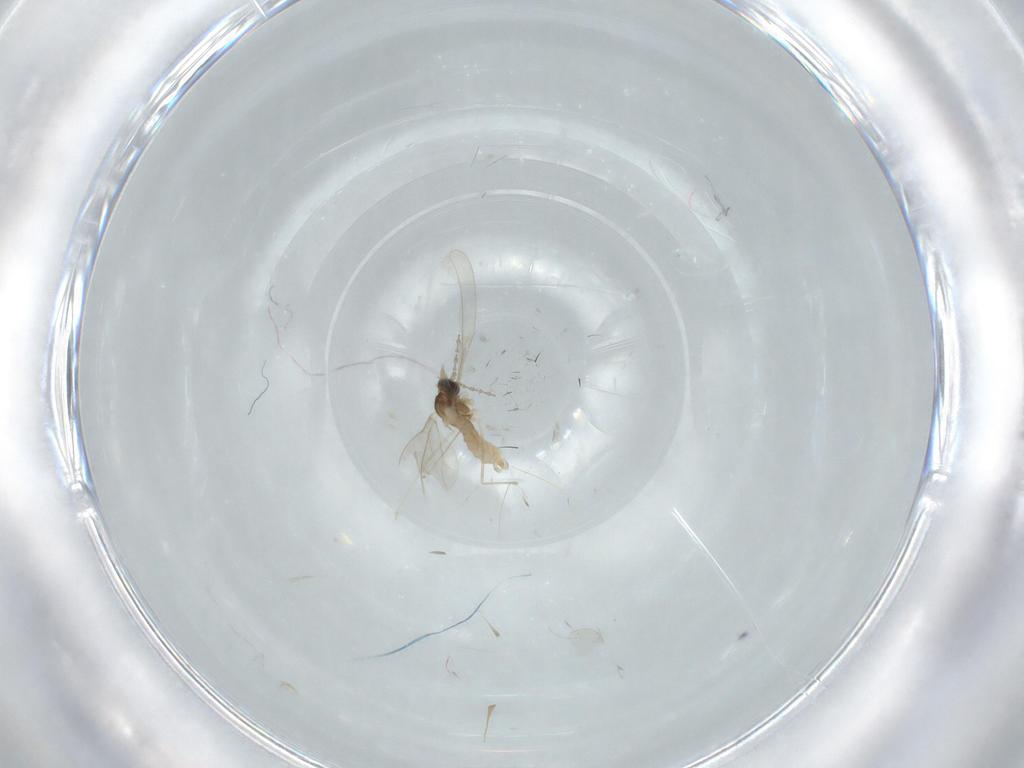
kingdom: Animalia
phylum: Arthropoda
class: Insecta
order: Diptera
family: Cecidomyiidae
